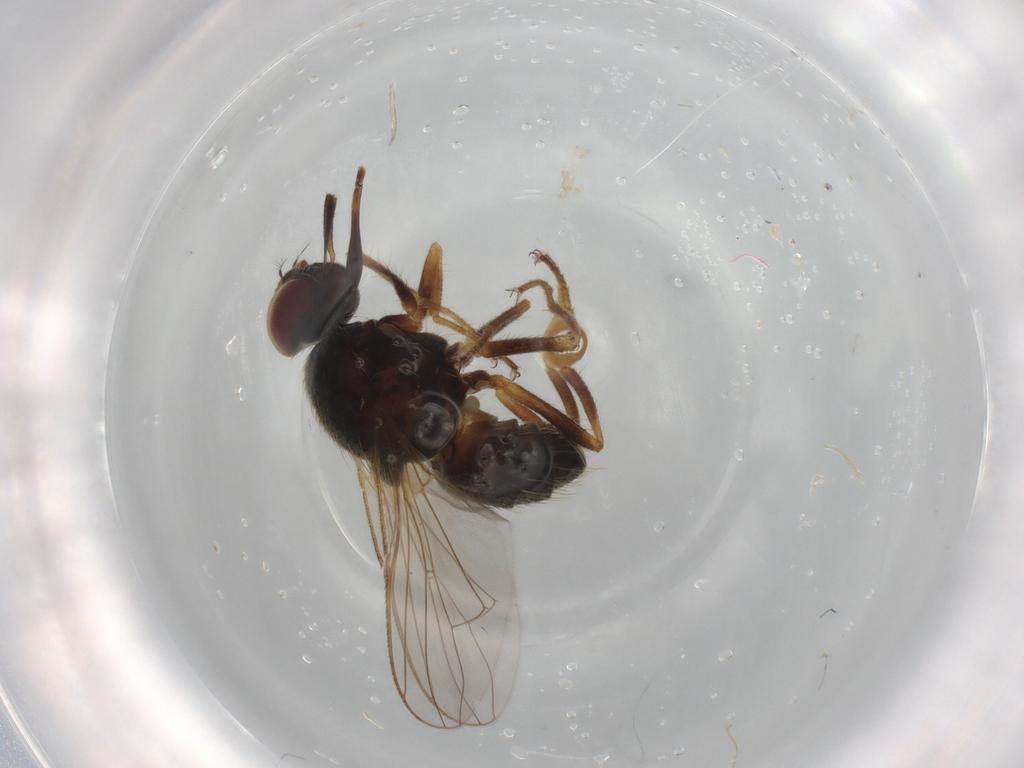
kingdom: Animalia
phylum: Arthropoda
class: Insecta
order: Diptera
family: Muscidae
